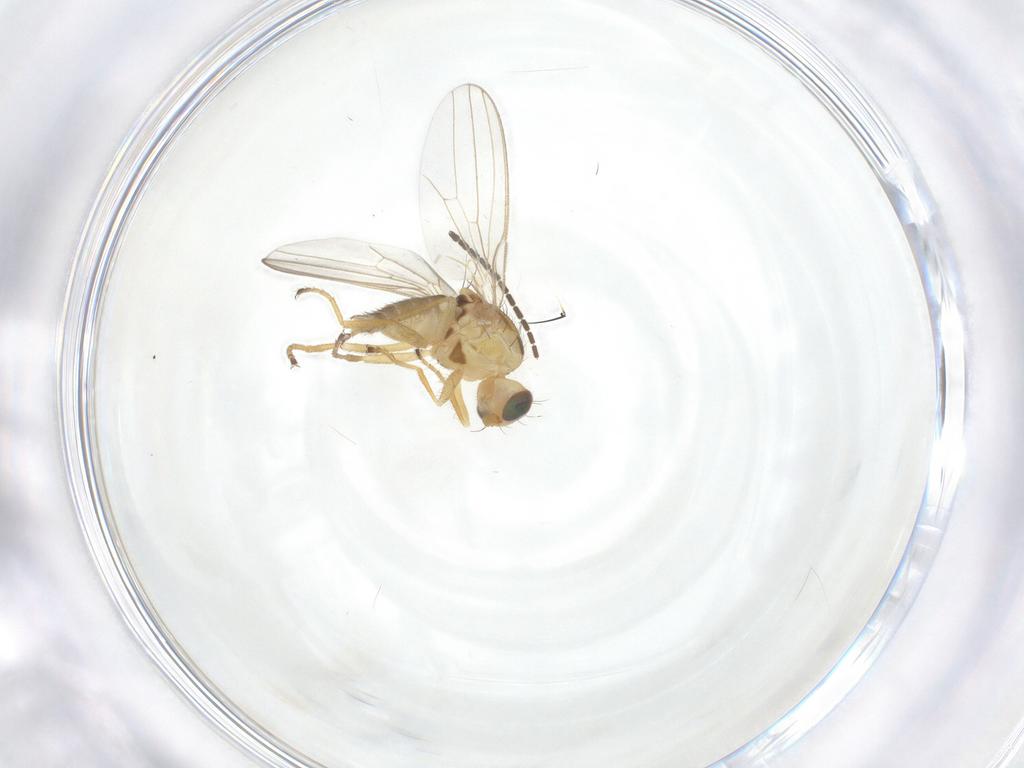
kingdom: Animalia
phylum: Arthropoda
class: Insecta
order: Diptera
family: Chyromyidae
